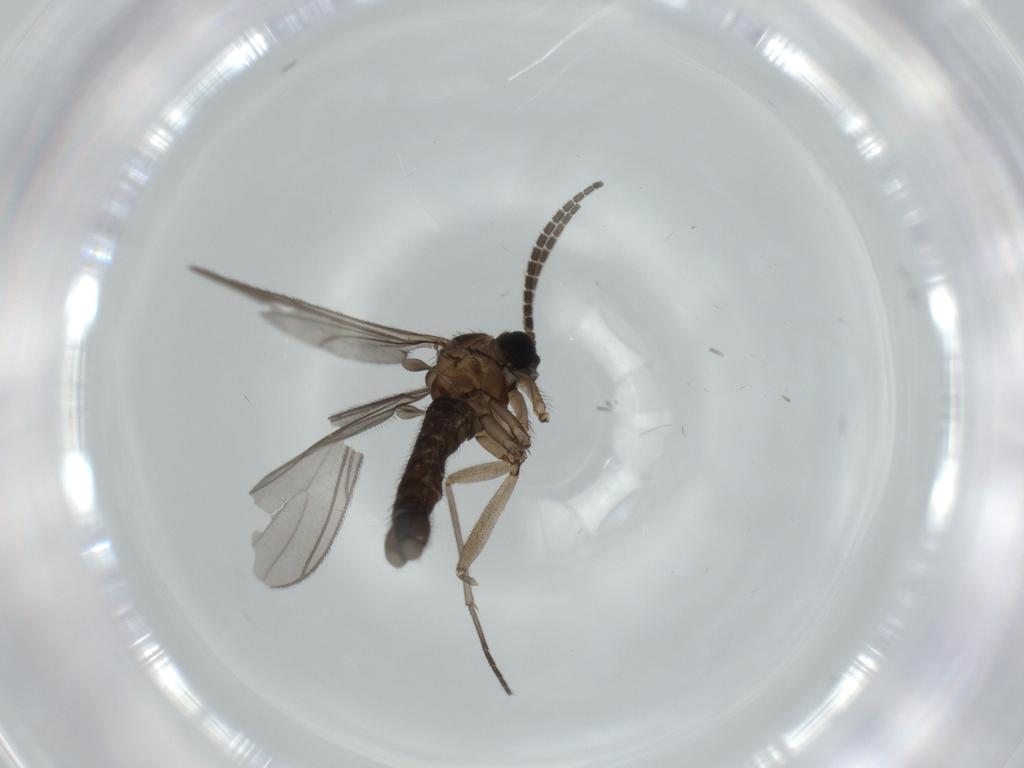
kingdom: Animalia
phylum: Arthropoda
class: Insecta
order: Diptera
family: Sciaridae
